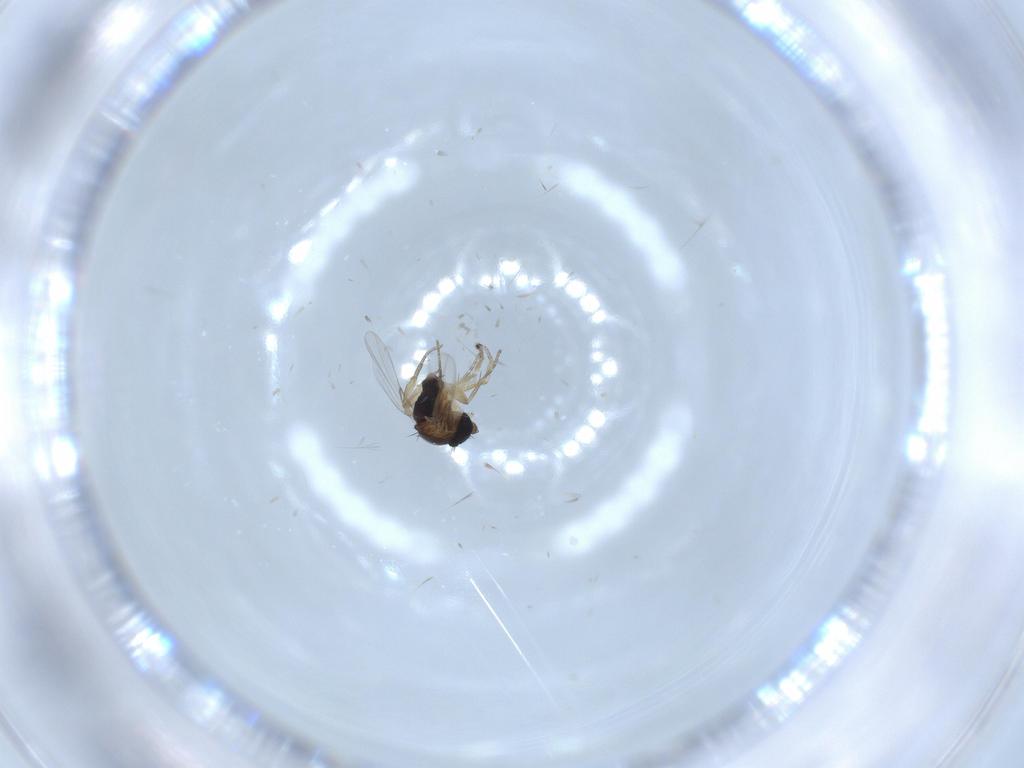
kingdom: Animalia
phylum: Arthropoda
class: Insecta
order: Diptera
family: Phoridae
